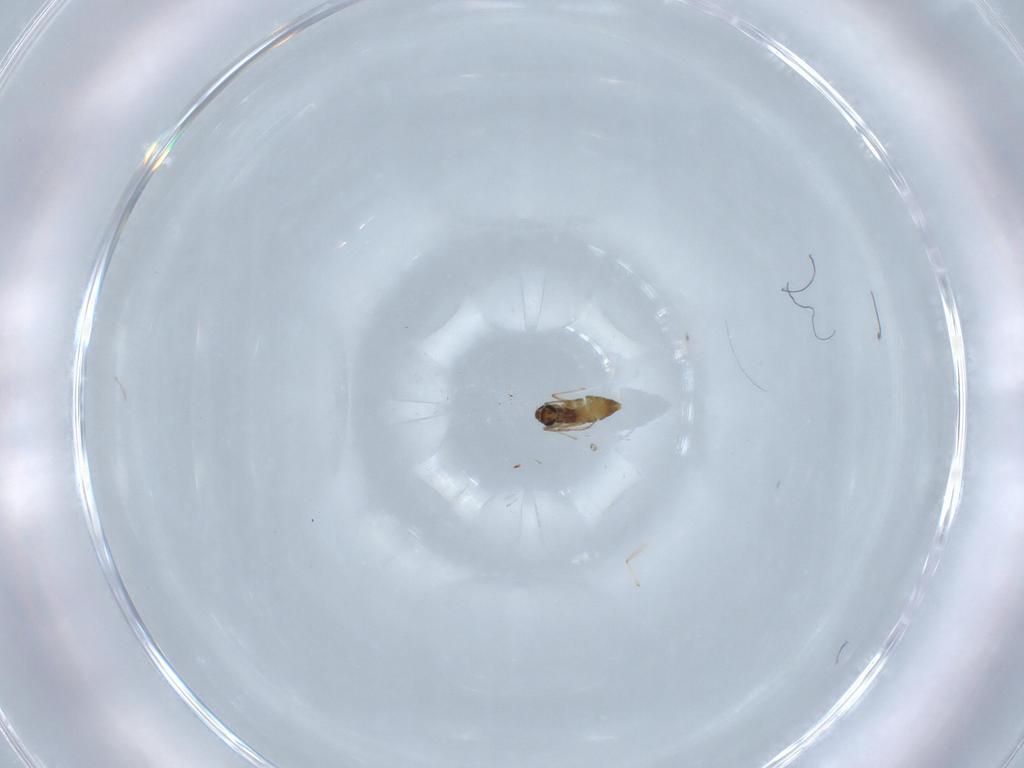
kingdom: Animalia
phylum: Arthropoda
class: Insecta
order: Diptera
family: Chironomidae
